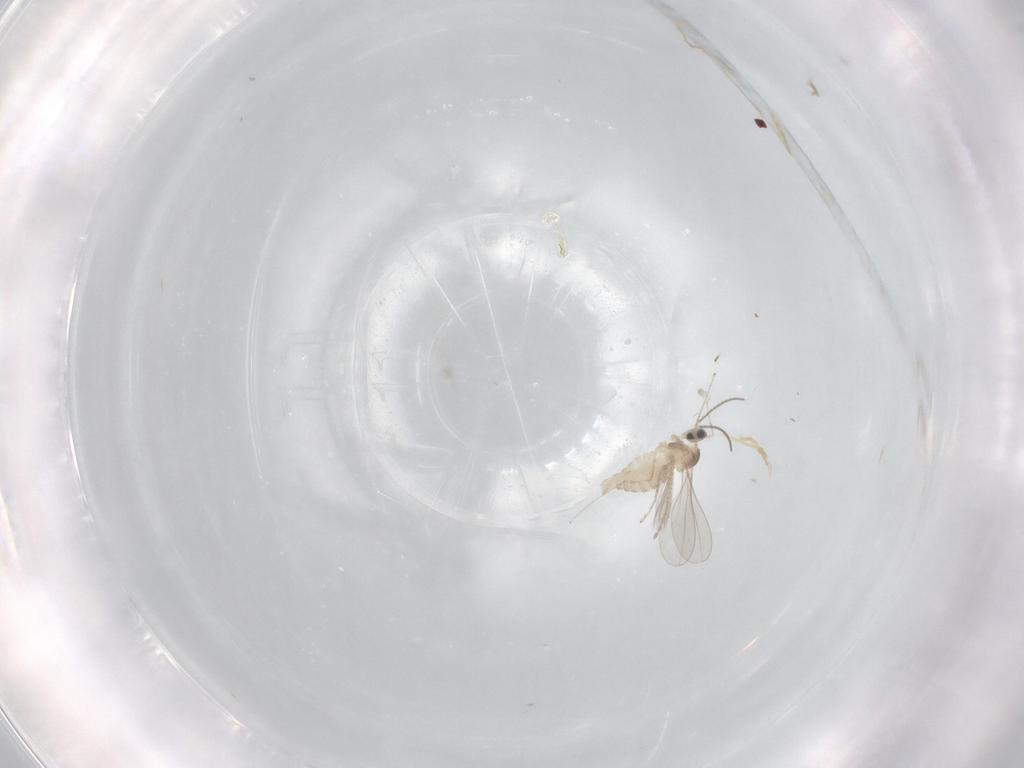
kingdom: Animalia
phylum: Arthropoda
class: Insecta
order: Diptera
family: Cecidomyiidae
